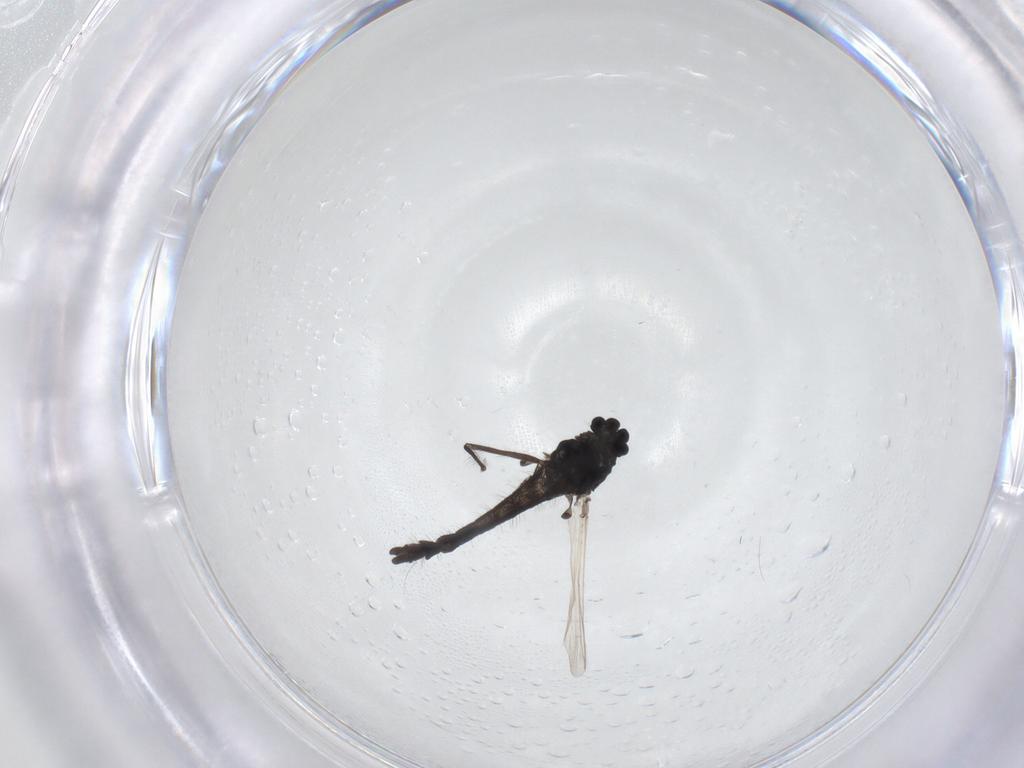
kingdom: Animalia
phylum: Arthropoda
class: Insecta
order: Diptera
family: Chironomidae
